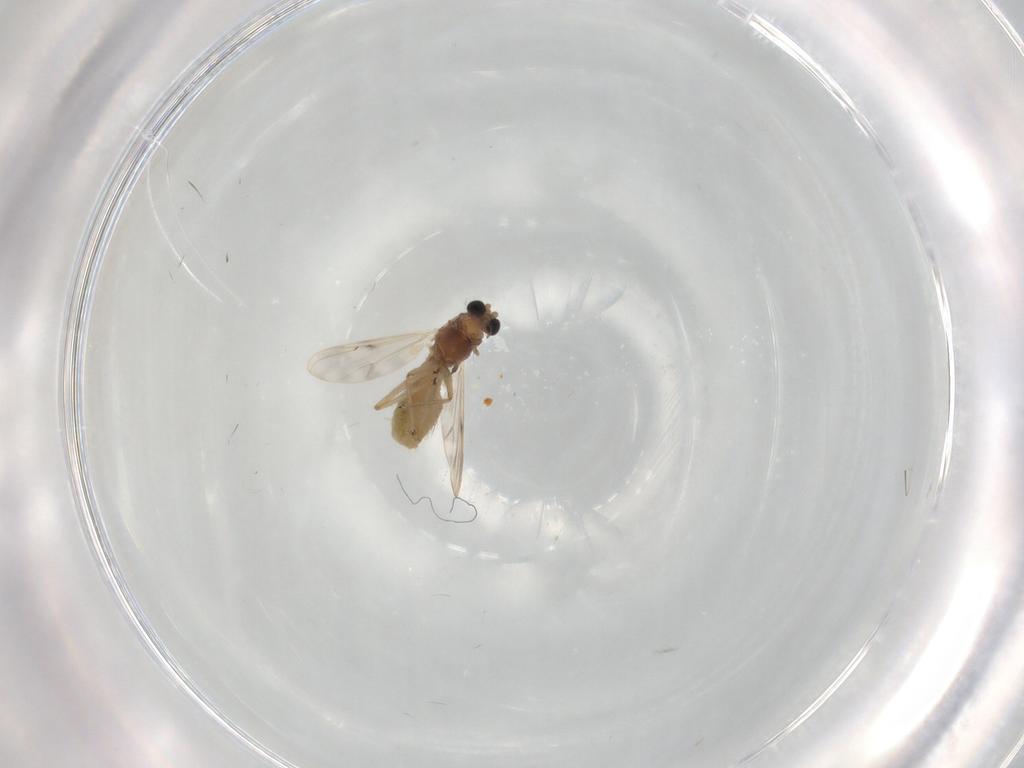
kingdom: Animalia
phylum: Arthropoda
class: Insecta
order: Diptera
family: Chironomidae
